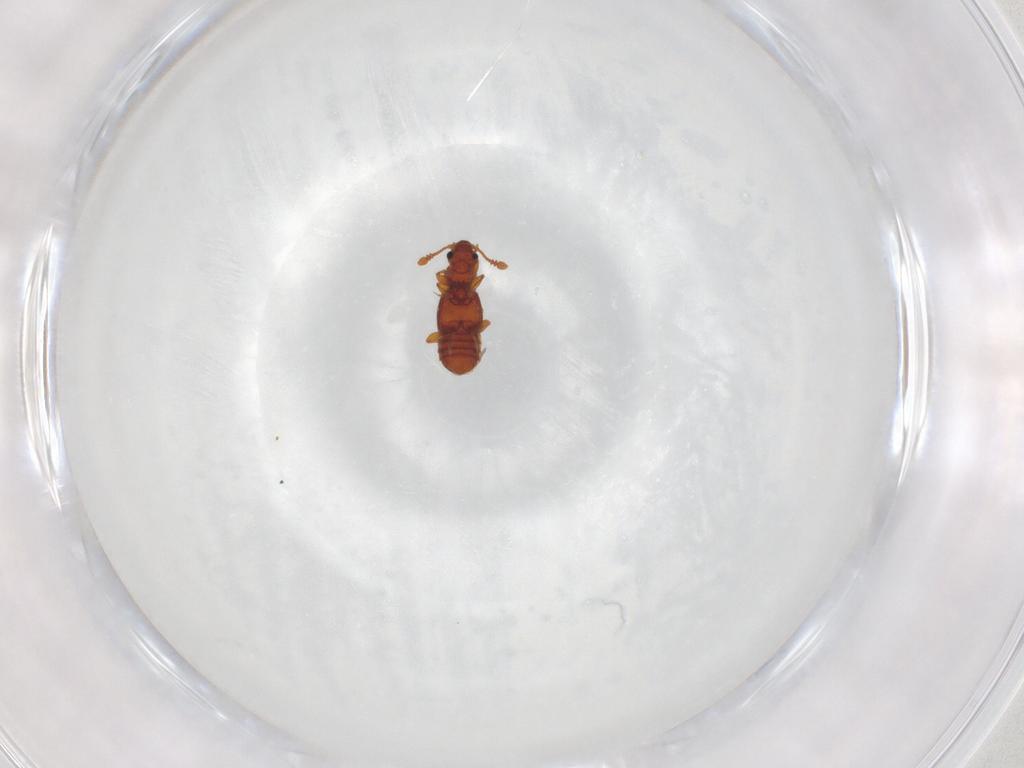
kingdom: Animalia
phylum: Arthropoda
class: Insecta
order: Coleoptera
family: Staphylinidae
